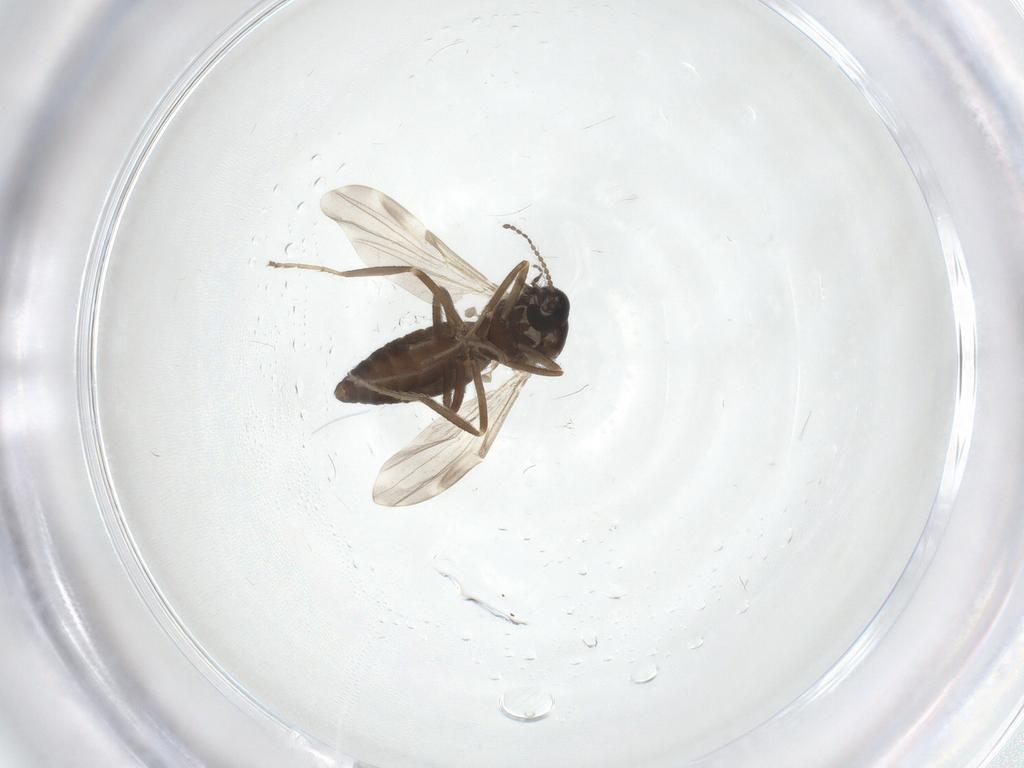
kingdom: Animalia
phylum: Arthropoda
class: Insecta
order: Diptera
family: Ceratopogonidae
